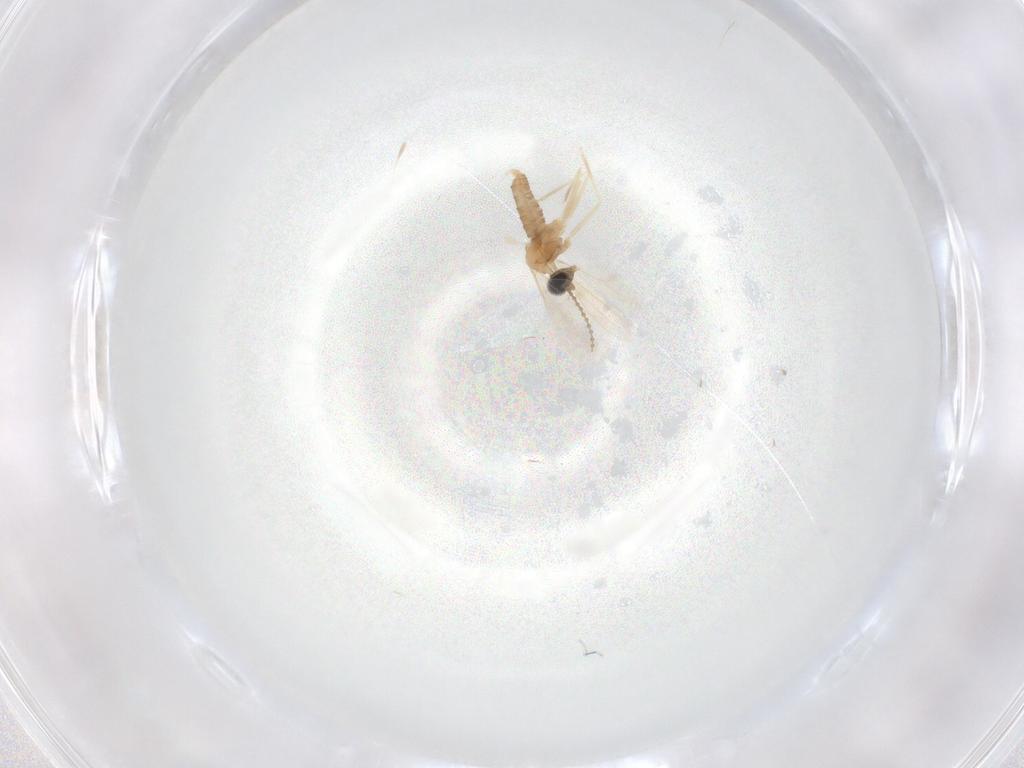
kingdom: Animalia
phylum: Arthropoda
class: Insecta
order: Diptera
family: Cecidomyiidae
